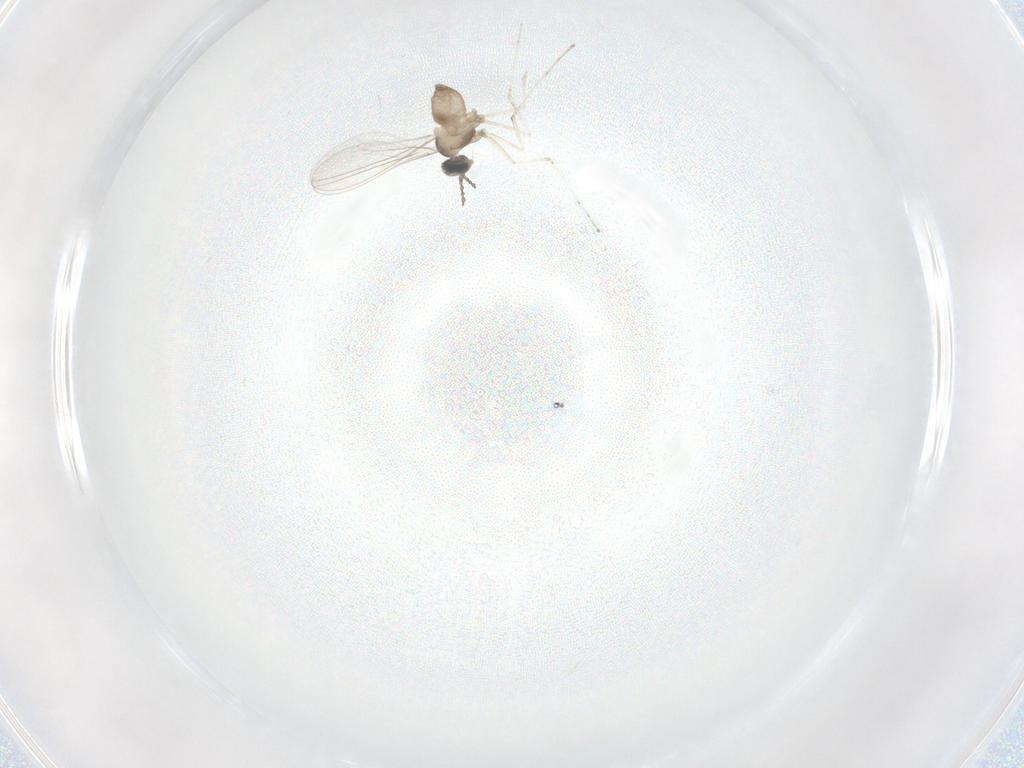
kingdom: Animalia
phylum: Arthropoda
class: Insecta
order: Diptera
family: Cecidomyiidae
